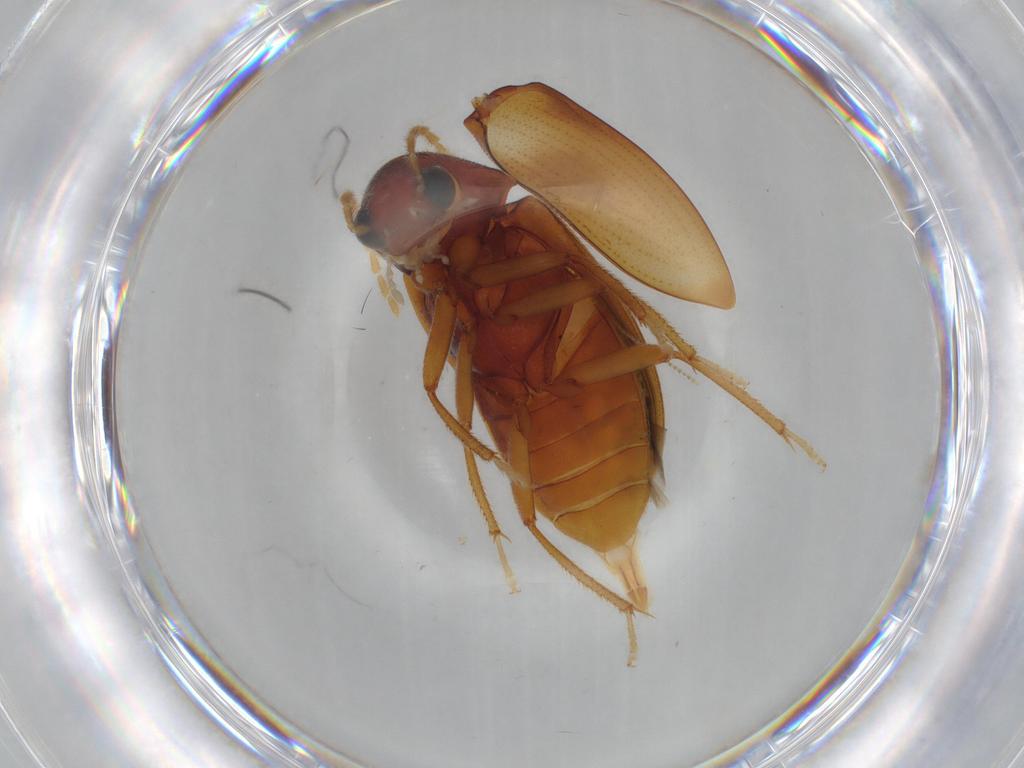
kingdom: Animalia
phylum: Arthropoda
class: Insecta
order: Coleoptera
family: Ptilodactylidae
